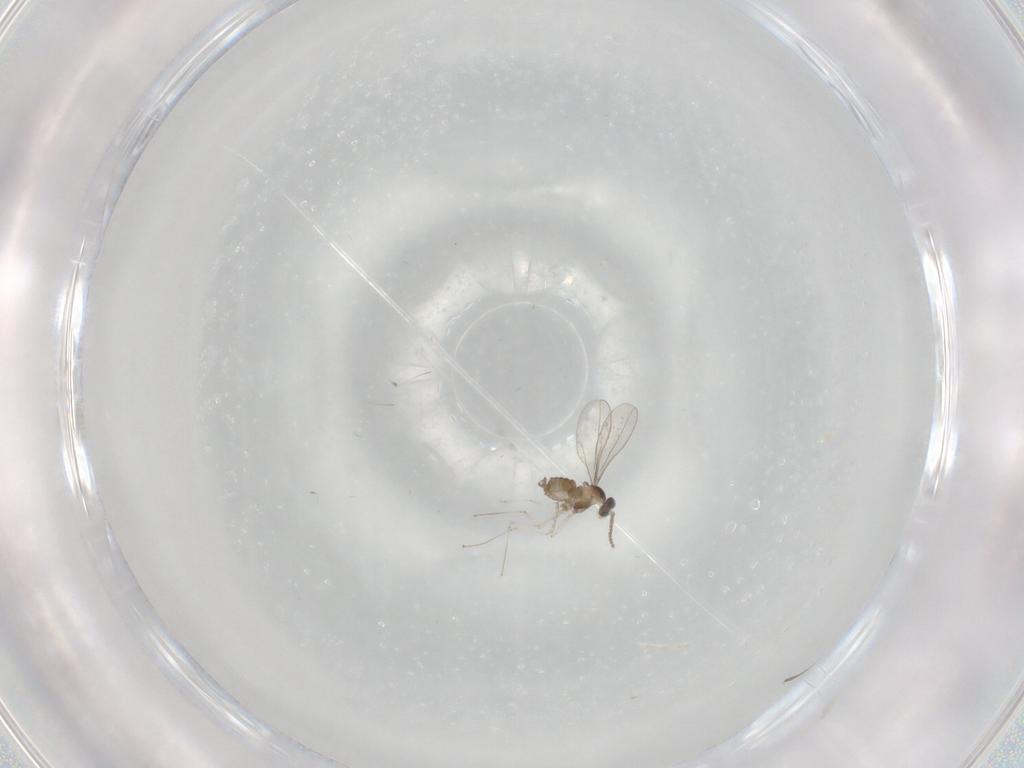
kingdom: Animalia
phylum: Arthropoda
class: Insecta
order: Diptera
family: Cecidomyiidae
